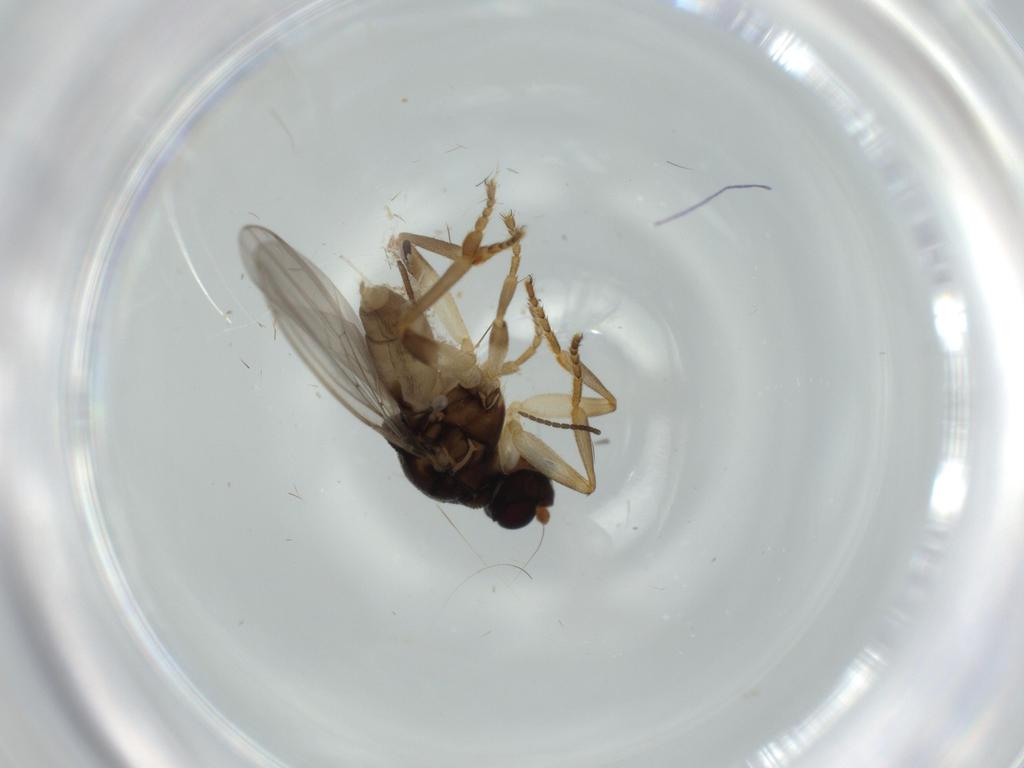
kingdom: Animalia
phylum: Arthropoda
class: Insecta
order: Diptera
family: Sphaeroceridae
